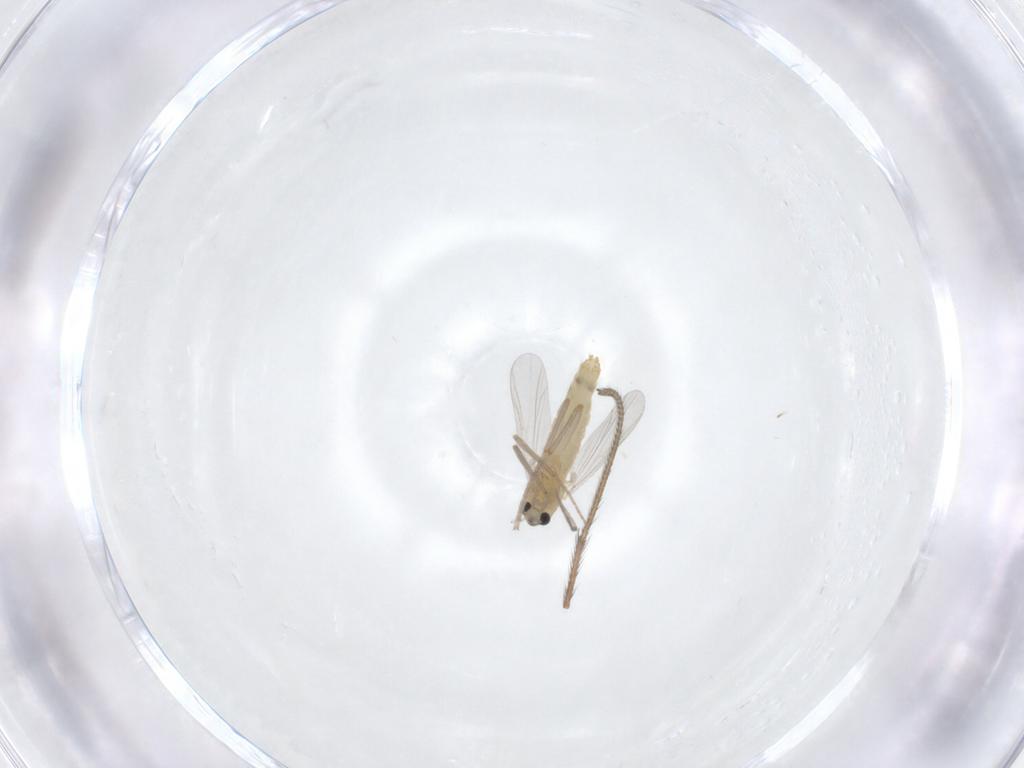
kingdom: Animalia
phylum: Arthropoda
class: Insecta
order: Diptera
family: Chironomidae
